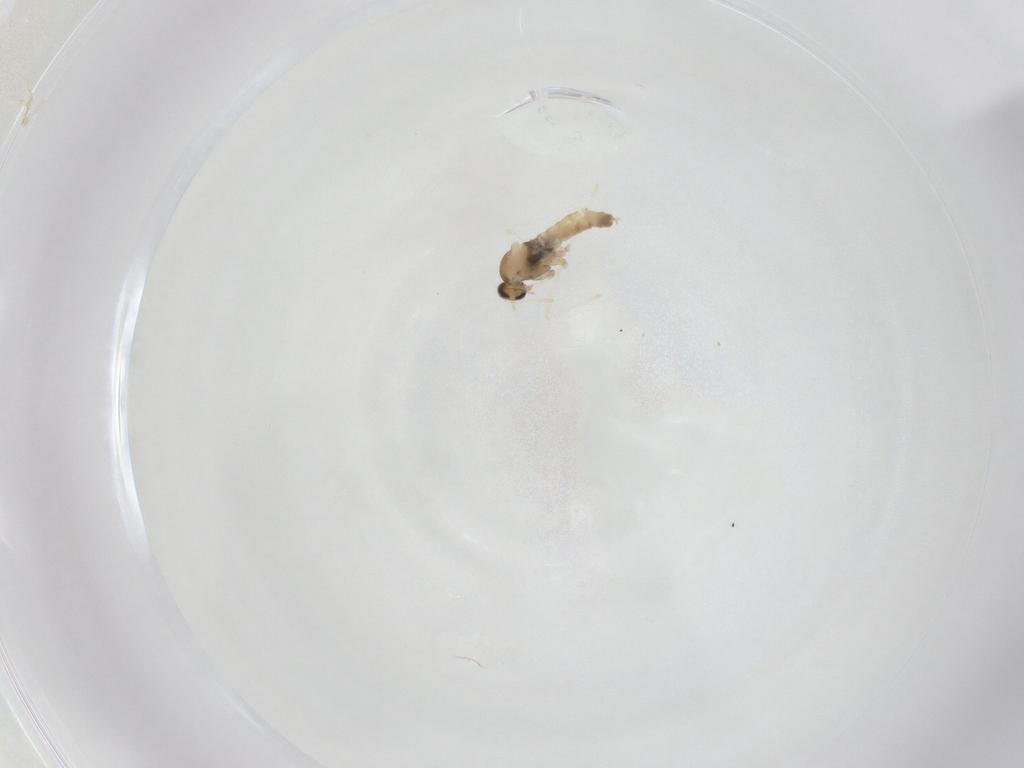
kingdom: Animalia
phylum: Arthropoda
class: Insecta
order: Diptera
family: Cecidomyiidae
